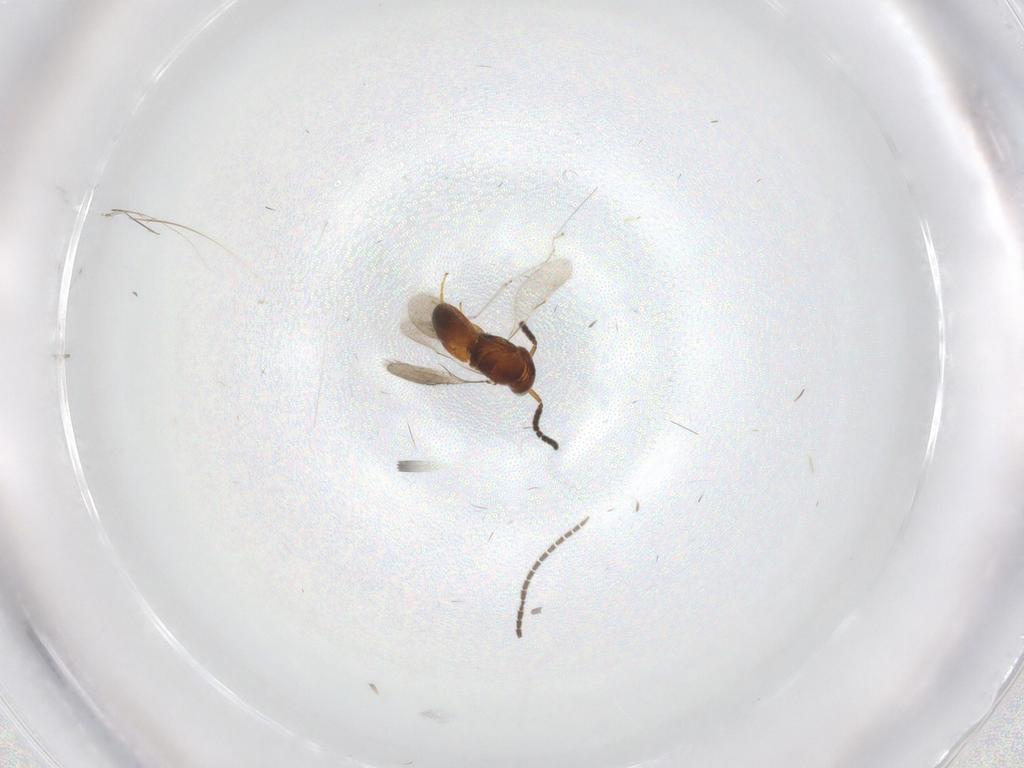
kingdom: Animalia
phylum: Arthropoda
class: Insecta
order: Hymenoptera
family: Scelionidae
